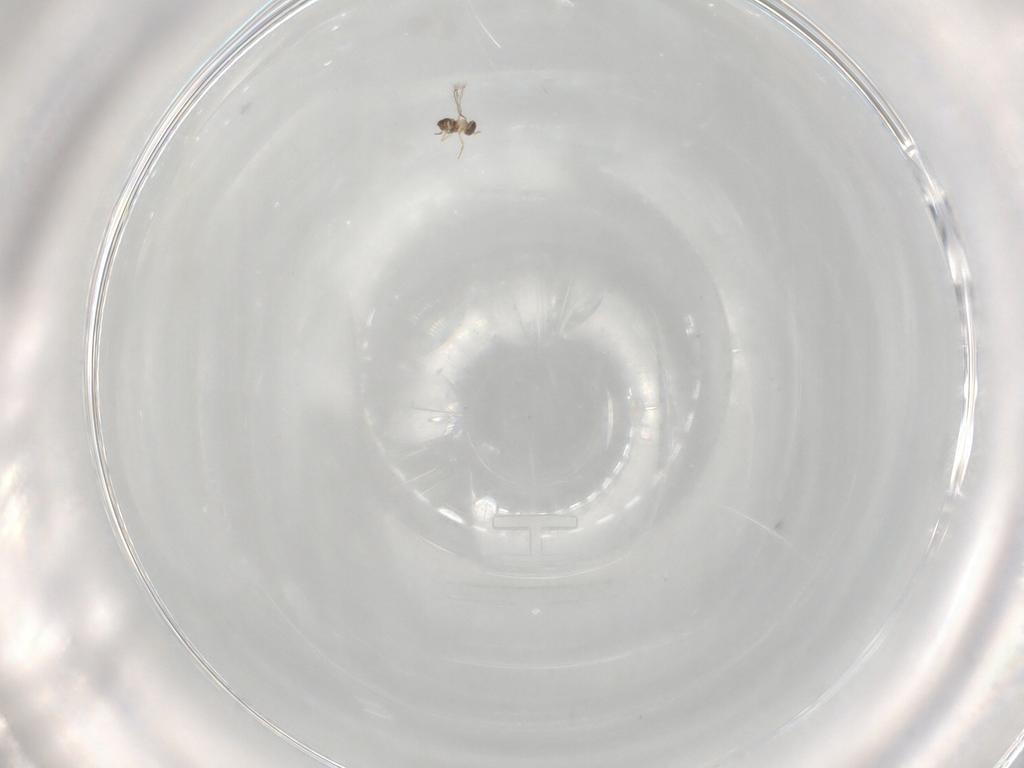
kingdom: Animalia
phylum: Arthropoda
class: Insecta
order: Hymenoptera
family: Mymaridae
